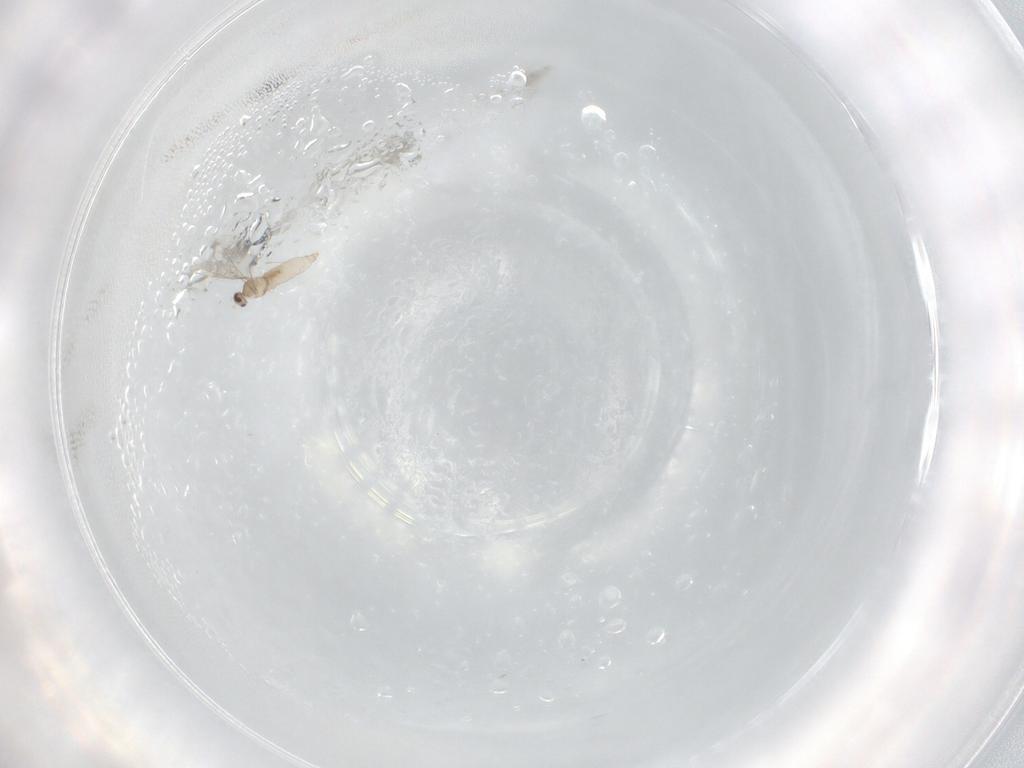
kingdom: Animalia
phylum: Arthropoda
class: Insecta
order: Diptera
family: Cecidomyiidae
